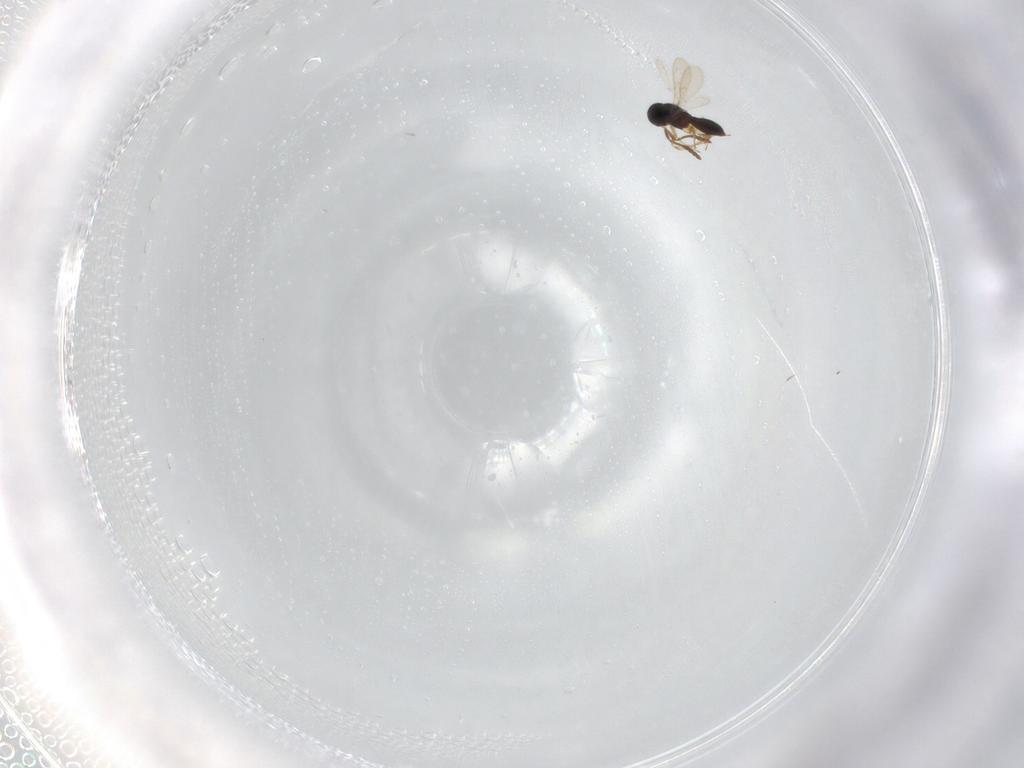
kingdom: Animalia
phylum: Arthropoda
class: Insecta
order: Hymenoptera
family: Scelionidae
